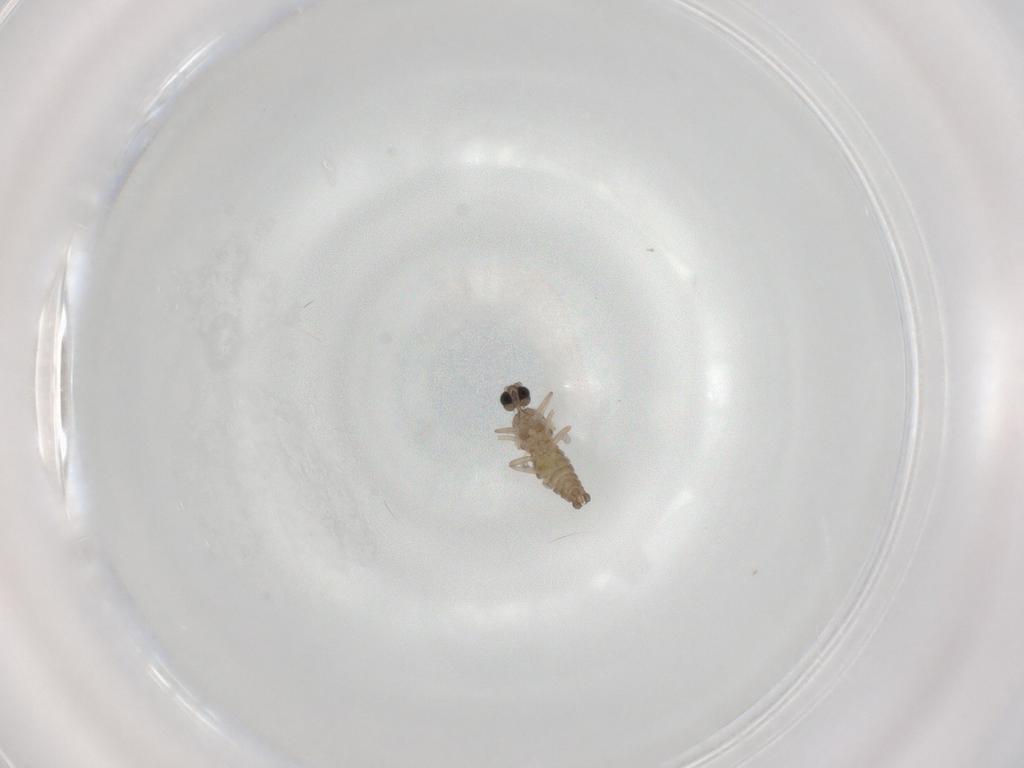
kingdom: Animalia
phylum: Arthropoda
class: Insecta
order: Diptera
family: Cecidomyiidae
